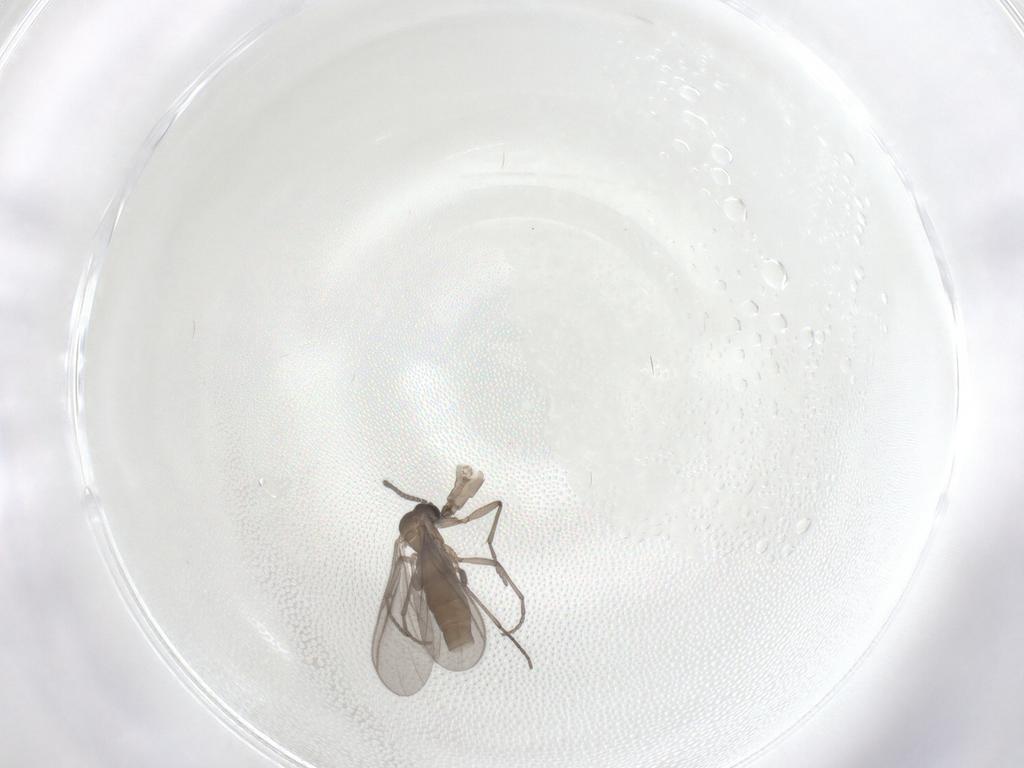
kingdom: Animalia
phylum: Arthropoda
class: Insecta
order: Diptera
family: Sciaridae
